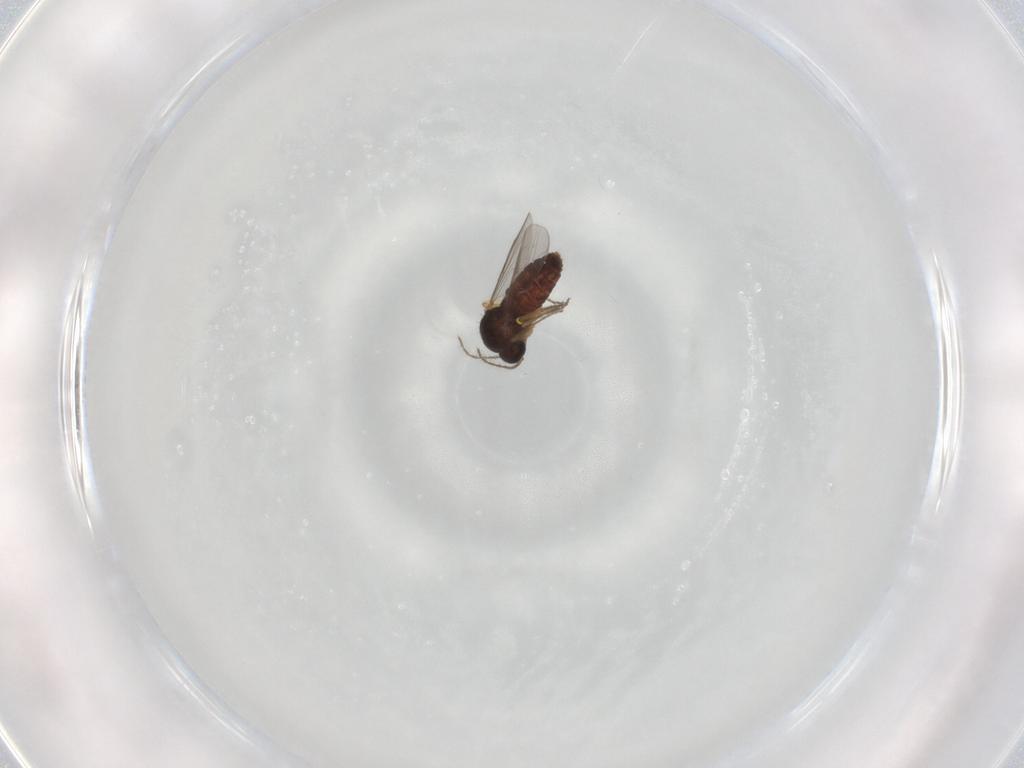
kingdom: Animalia
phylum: Arthropoda
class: Insecta
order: Diptera
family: Ceratopogonidae
